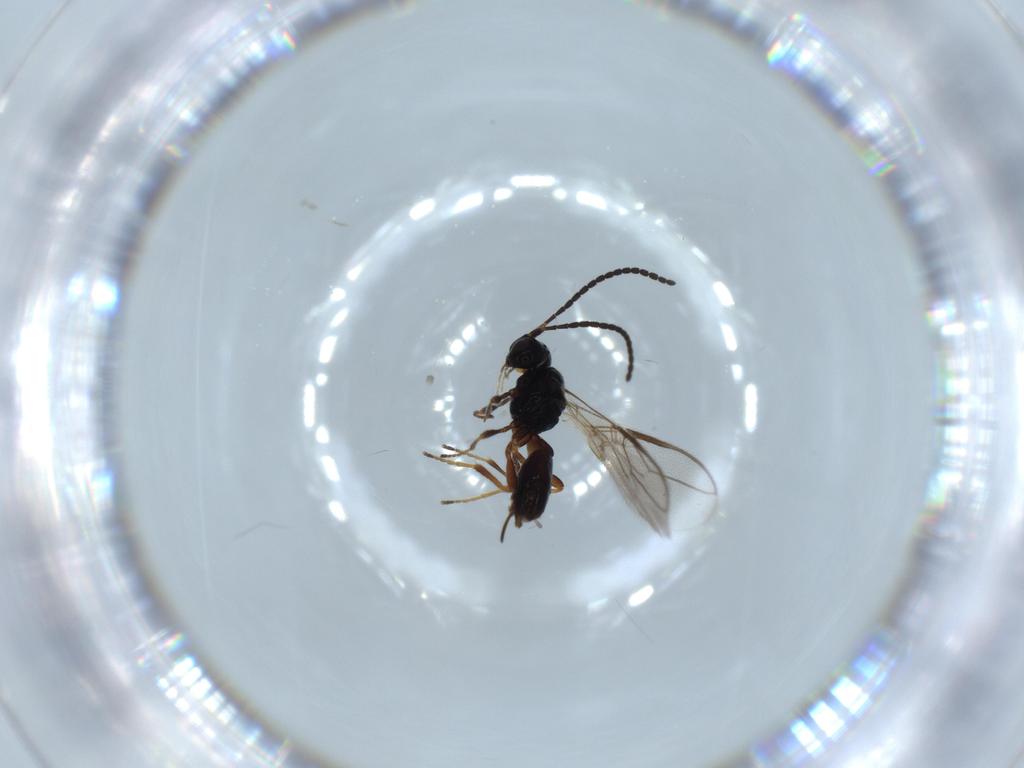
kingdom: Animalia
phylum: Arthropoda
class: Insecta
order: Hymenoptera
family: Braconidae
